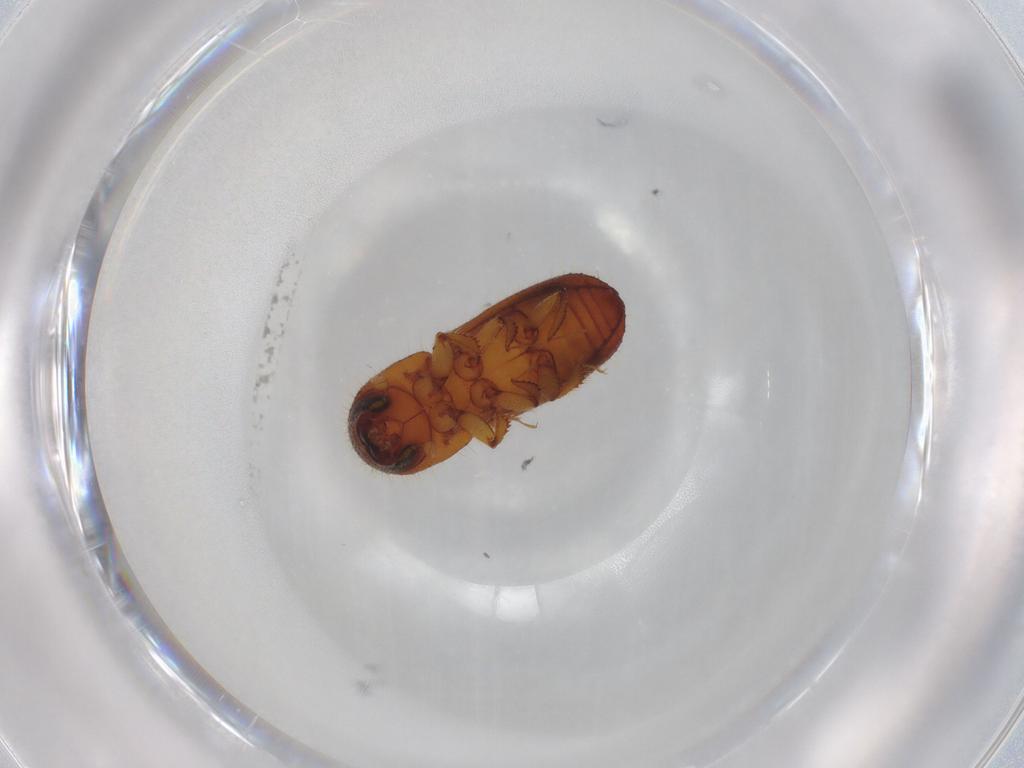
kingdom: Animalia
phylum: Arthropoda
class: Insecta
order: Coleoptera
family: Curculionidae
